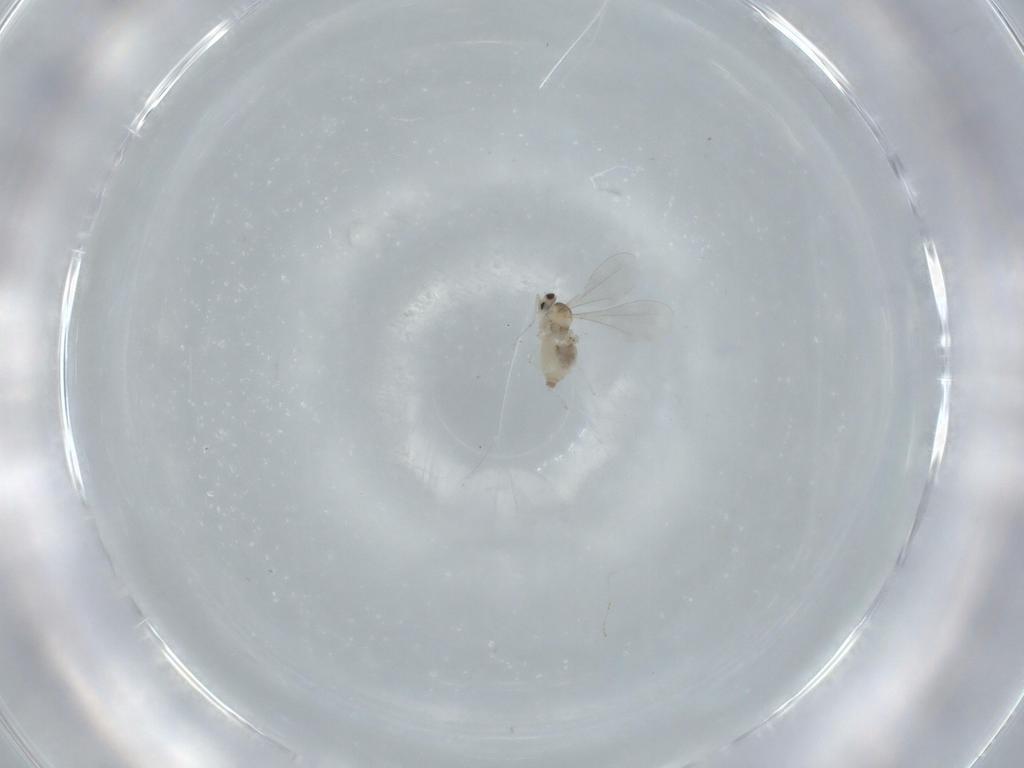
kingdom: Animalia
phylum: Arthropoda
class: Insecta
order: Diptera
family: Cecidomyiidae
